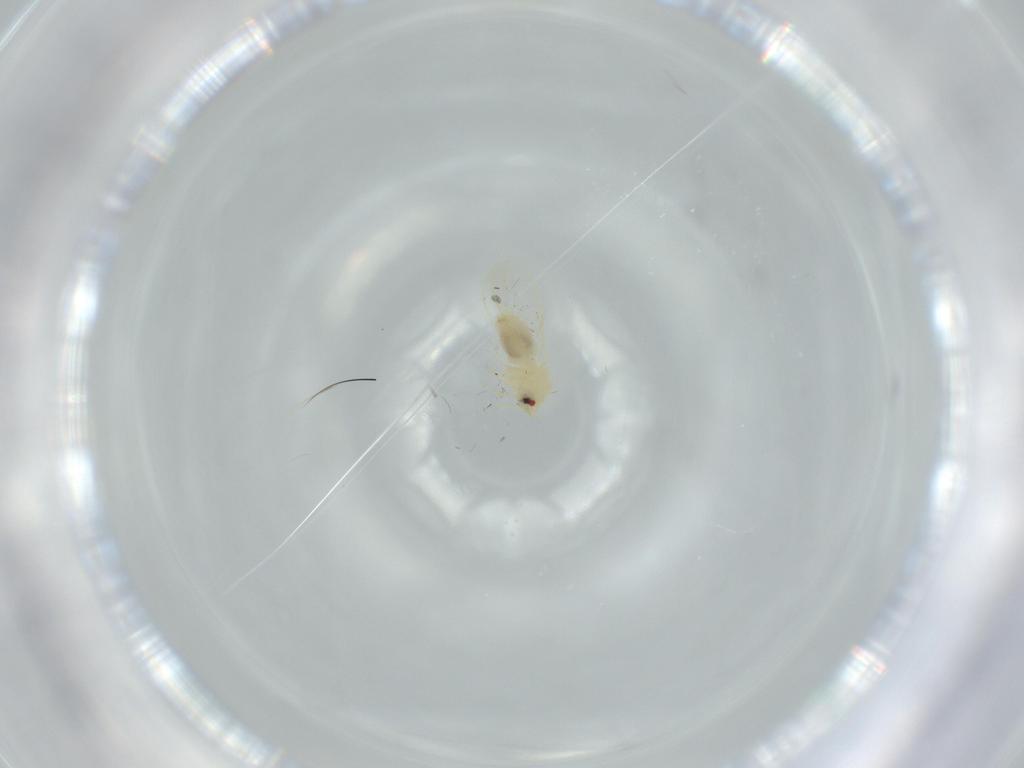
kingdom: Animalia
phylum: Arthropoda
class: Insecta
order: Hemiptera
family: Aleyrodidae
